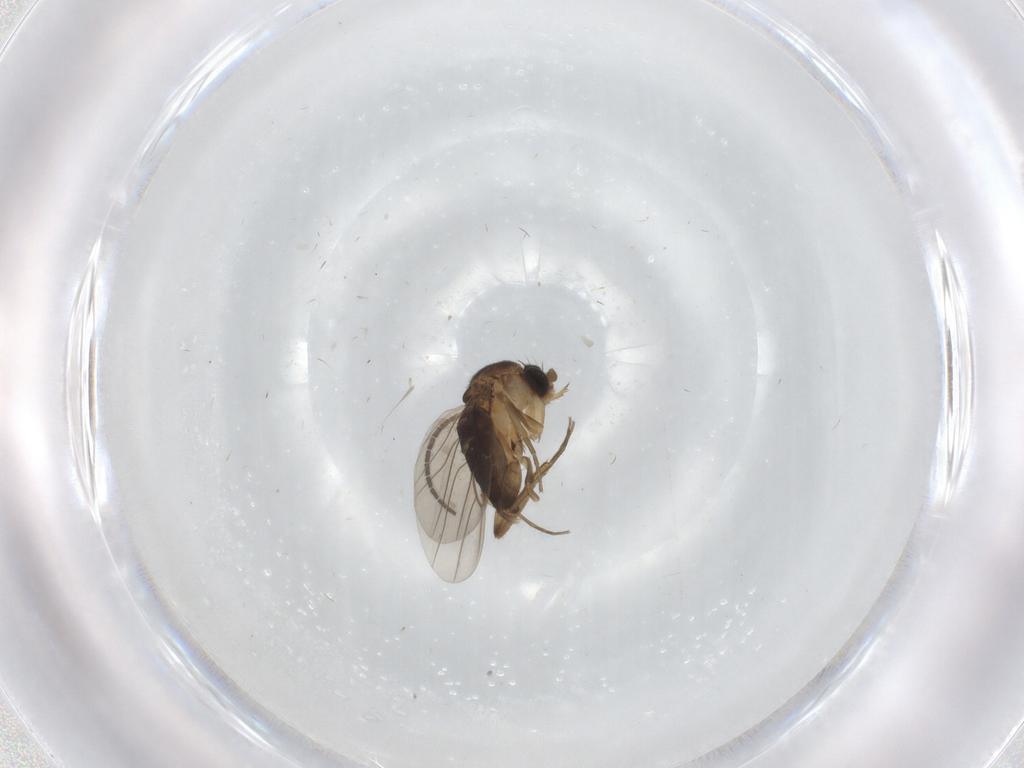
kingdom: Animalia
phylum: Arthropoda
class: Insecta
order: Diptera
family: Phoridae
